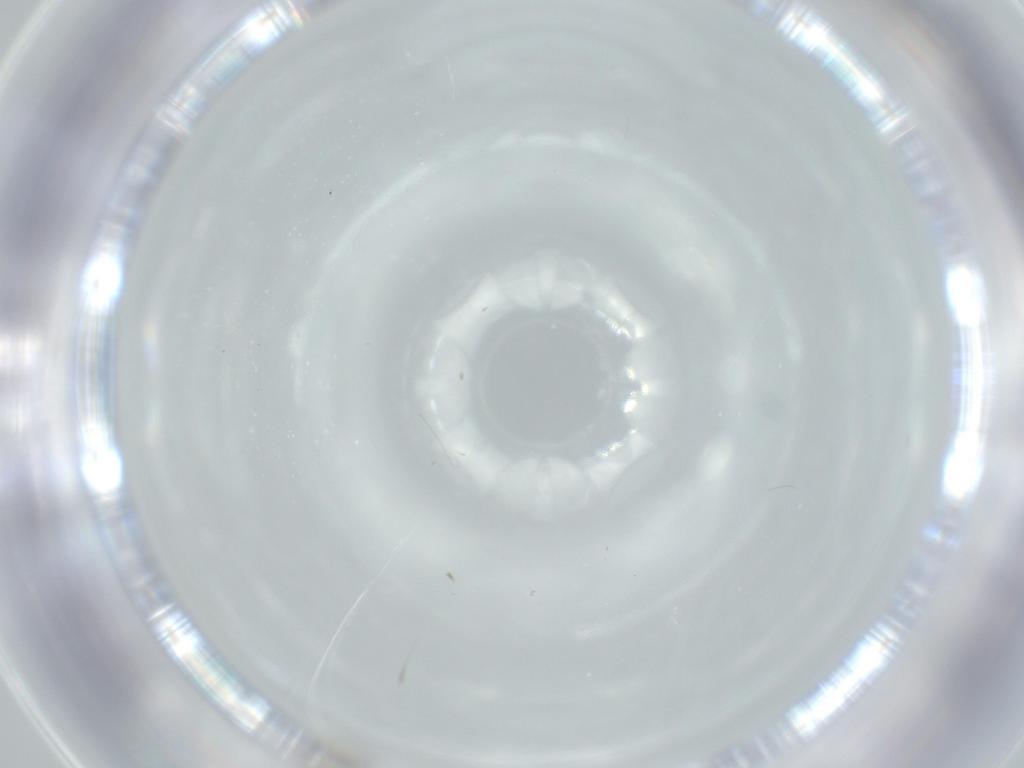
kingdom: Animalia
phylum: Arthropoda
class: Insecta
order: Diptera
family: Cecidomyiidae
